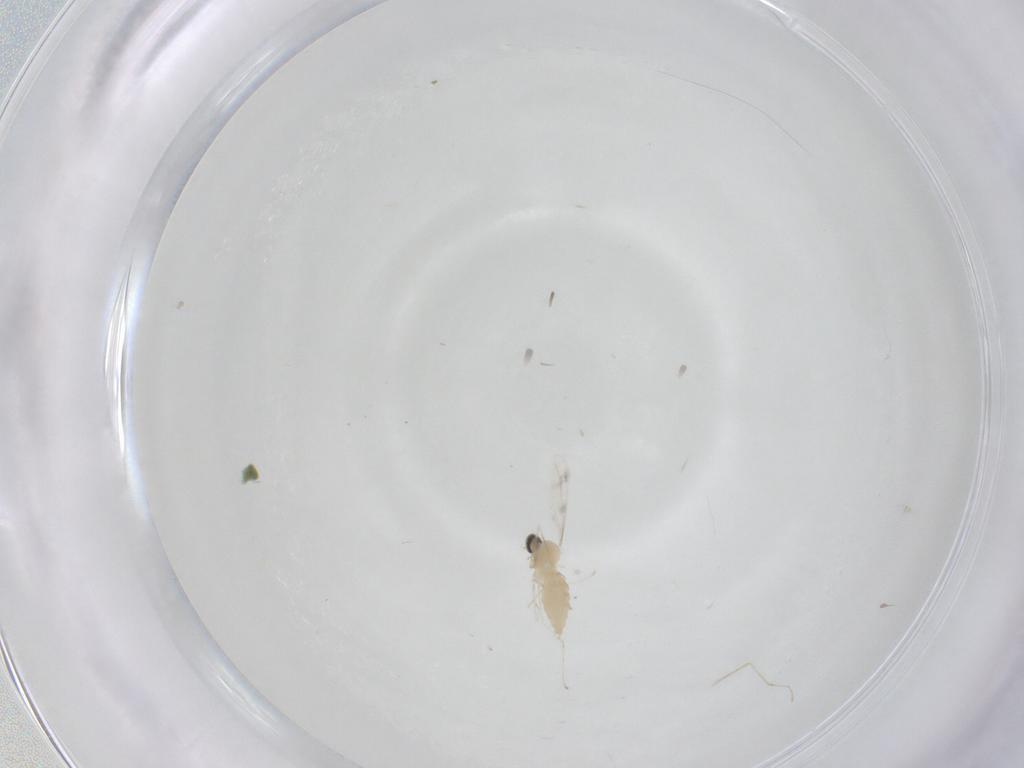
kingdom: Animalia
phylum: Arthropoda
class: Insecta
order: Diptera
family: Cecidomyiidae
